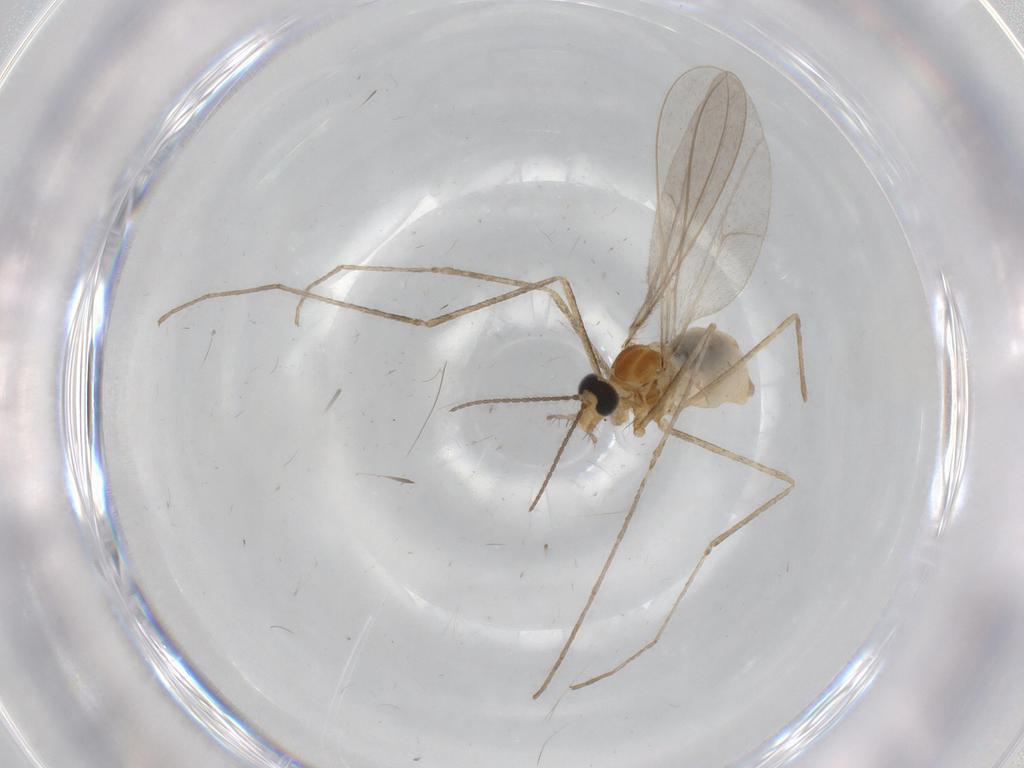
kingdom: Animalia
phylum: Arthropoda
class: Insecta
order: Diptera
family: Cecidomyiidae
